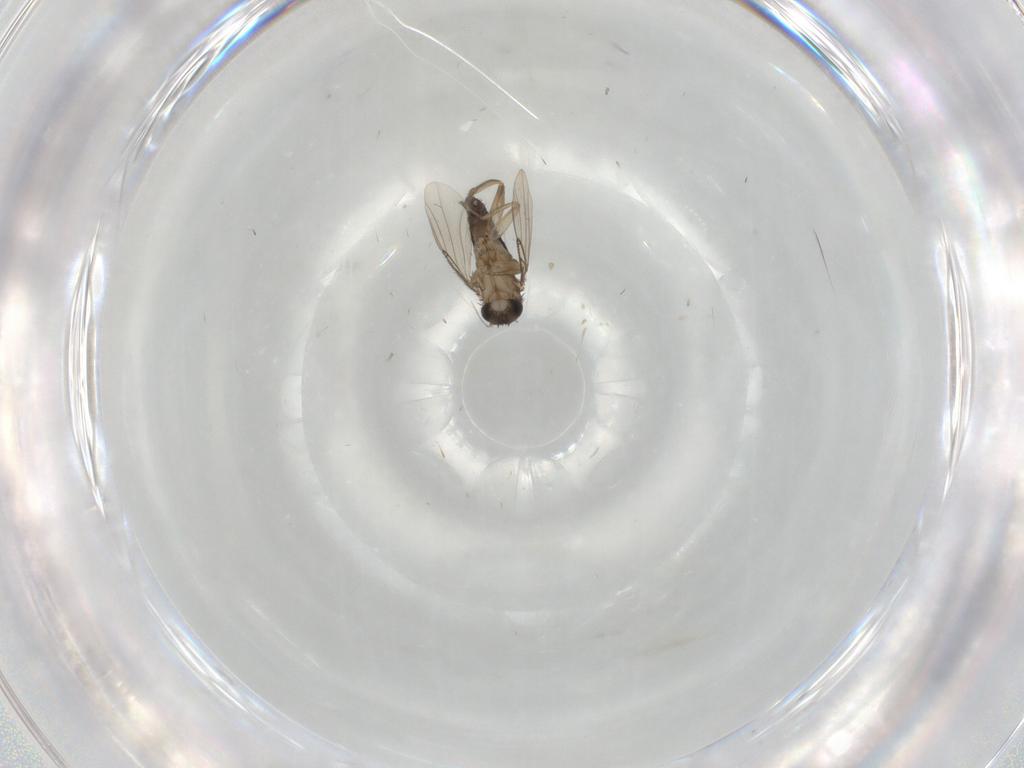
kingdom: Animalia
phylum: Arthropoda
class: Insecta
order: Diptera
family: Phoridae
